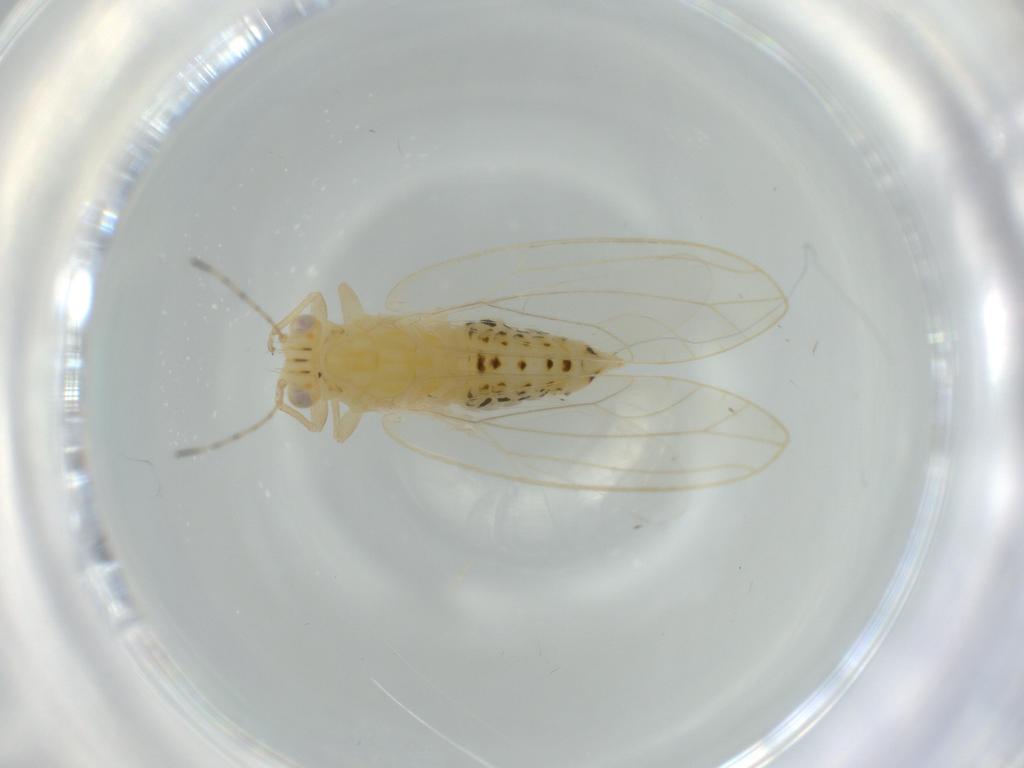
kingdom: Animalia
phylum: Arthropoda
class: Insecta
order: Hemiptera
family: Triozidae
